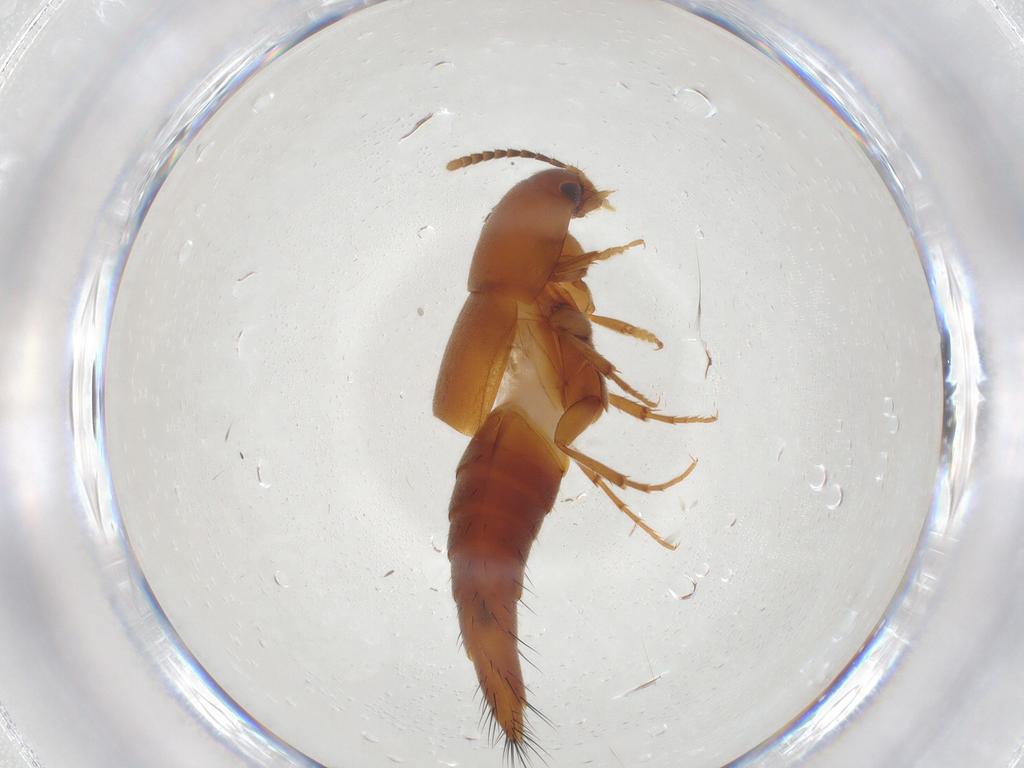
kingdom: Animalia
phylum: Arthropoda
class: Insecta
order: Coleoptera
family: Staphylinidae
